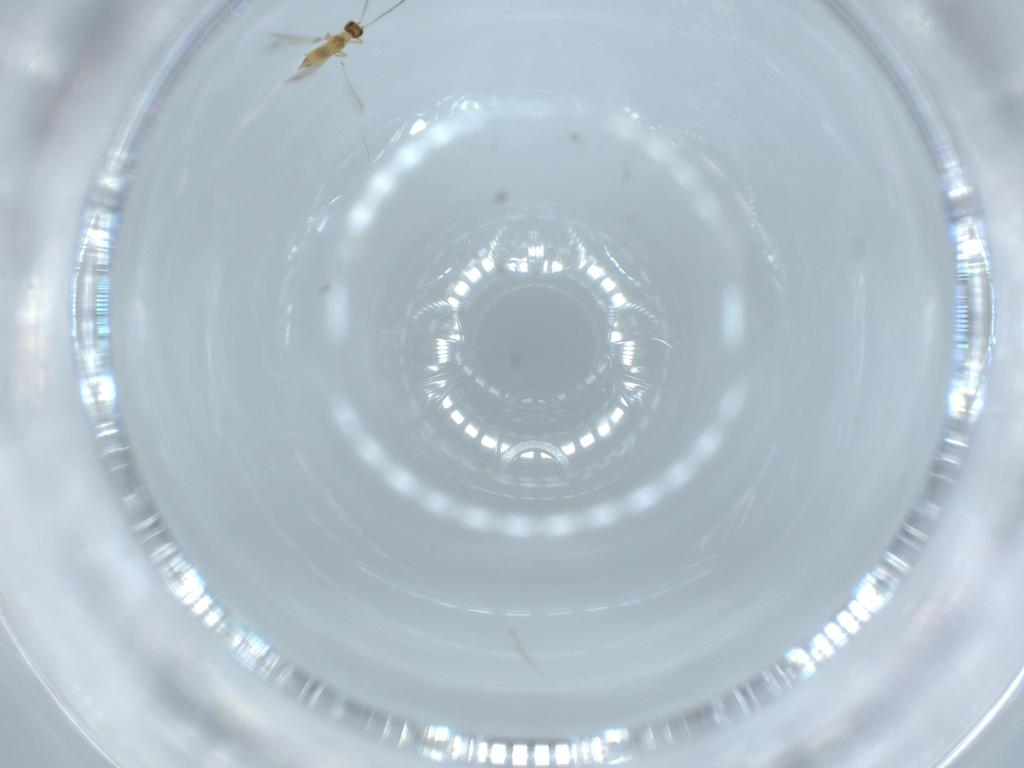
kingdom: Animalia
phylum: Arthropoda
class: Insecta
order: Hymenoptera
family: Mymaridae
